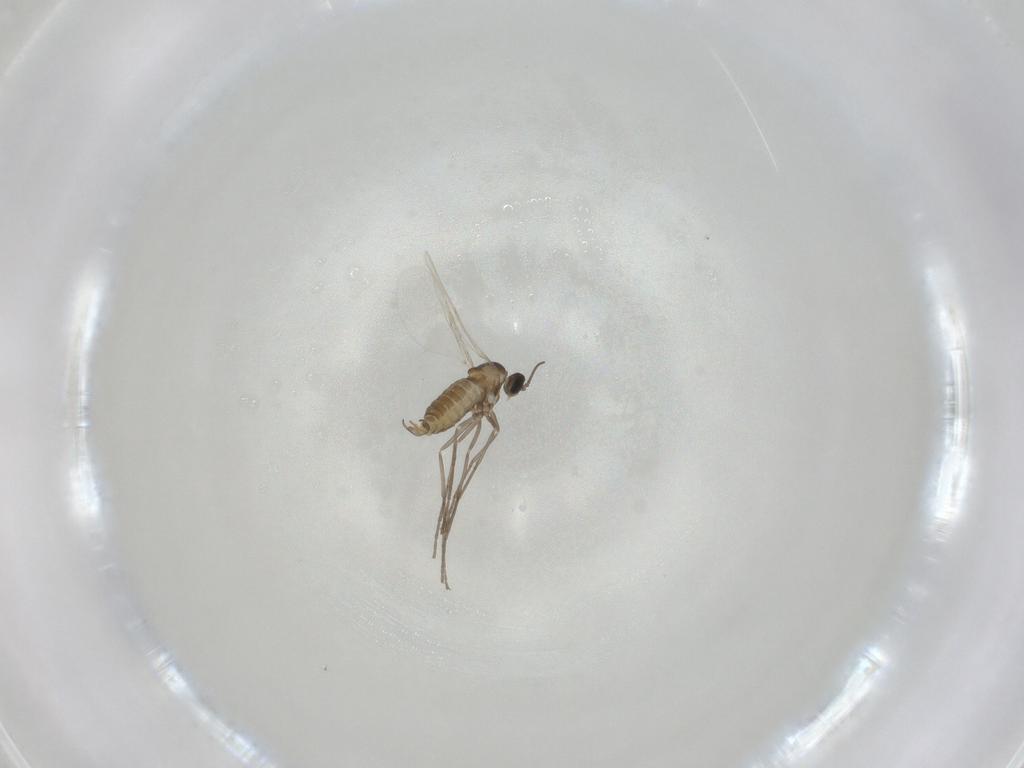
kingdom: Animalia
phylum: Arthropoda
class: Insecta
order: Diptera
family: Cecidomyiidae
